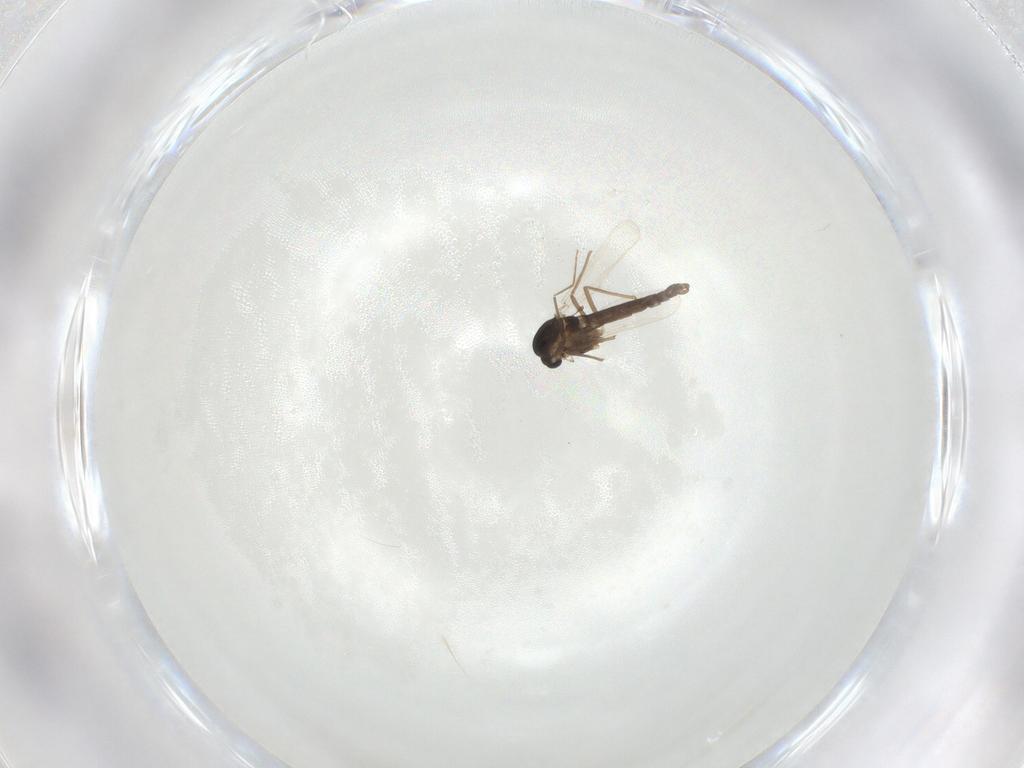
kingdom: Animalia
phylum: Arthropoda
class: Insecta
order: Diptera
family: Chironomidae
